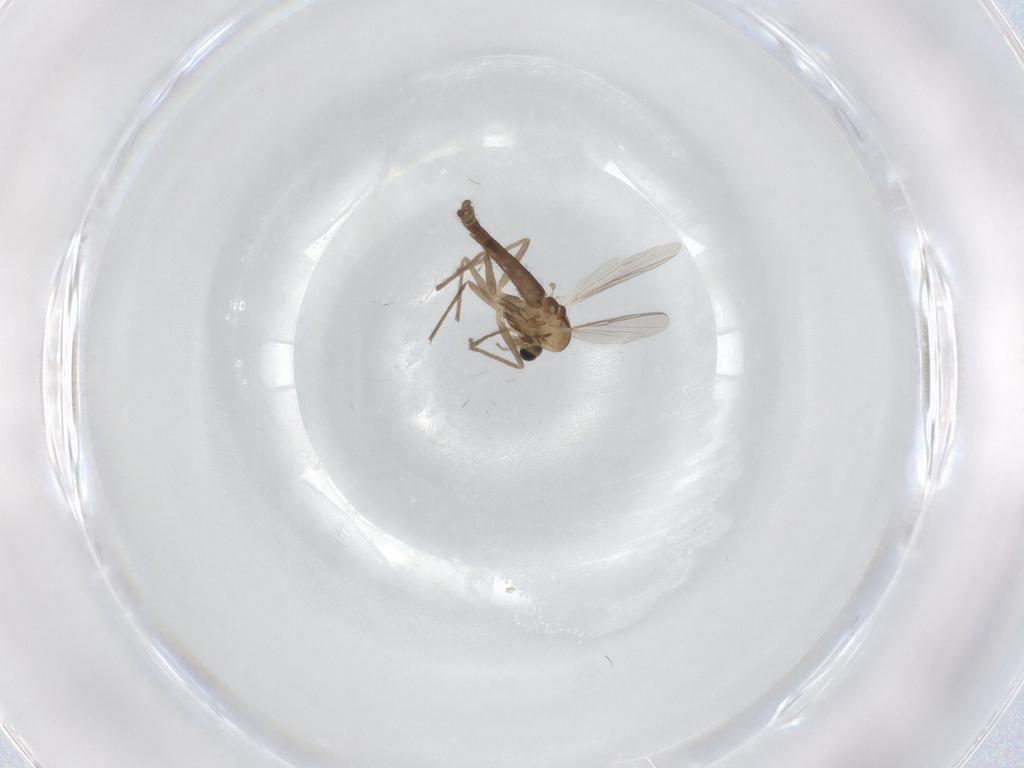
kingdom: Animalia
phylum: Arthropoda
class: Insecta
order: Diptera
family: Chironomidae
